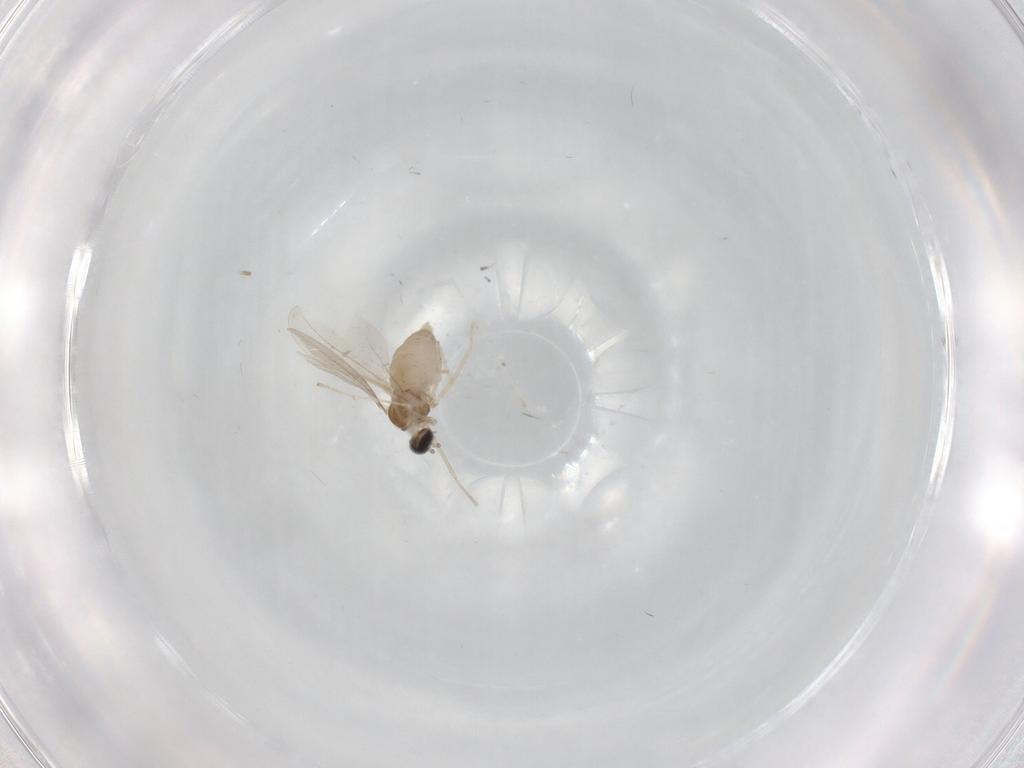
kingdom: Animalia
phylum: Arthropoda
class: Insecta
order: Diptera
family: Cecidomyiidae
